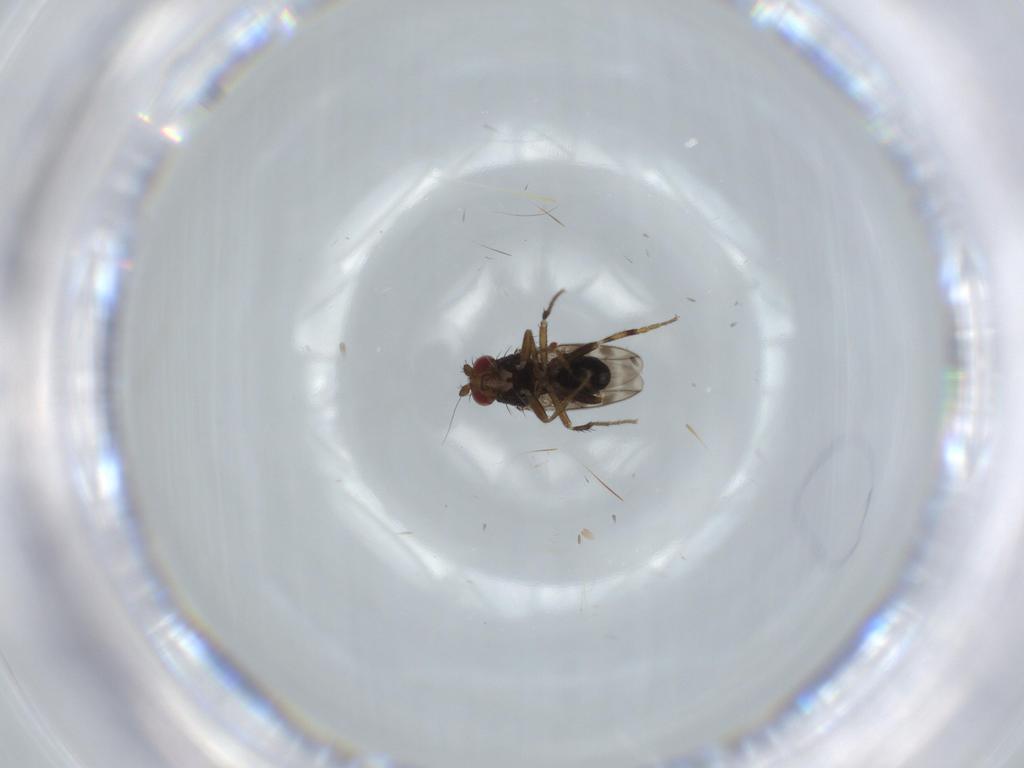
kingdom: Animalia
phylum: Arthropoda
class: Insecta
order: Diptera
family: Sphaeroceridae
